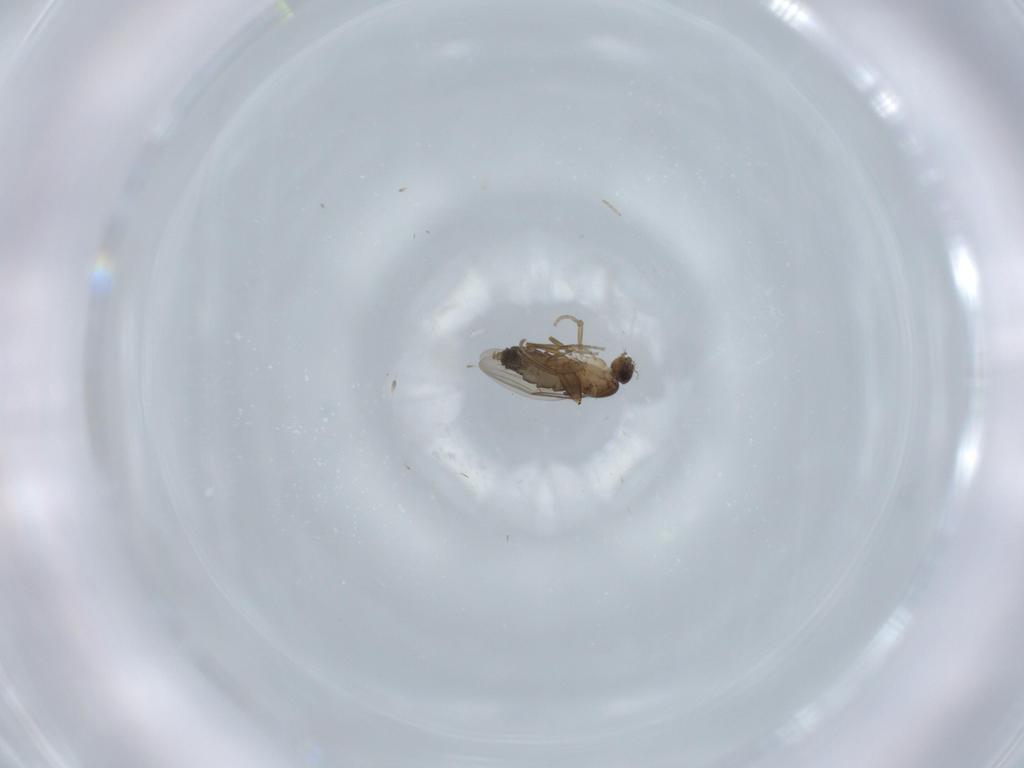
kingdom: Animalia
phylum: Arthropoda
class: Insecta
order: Diptera
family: Phoridae
